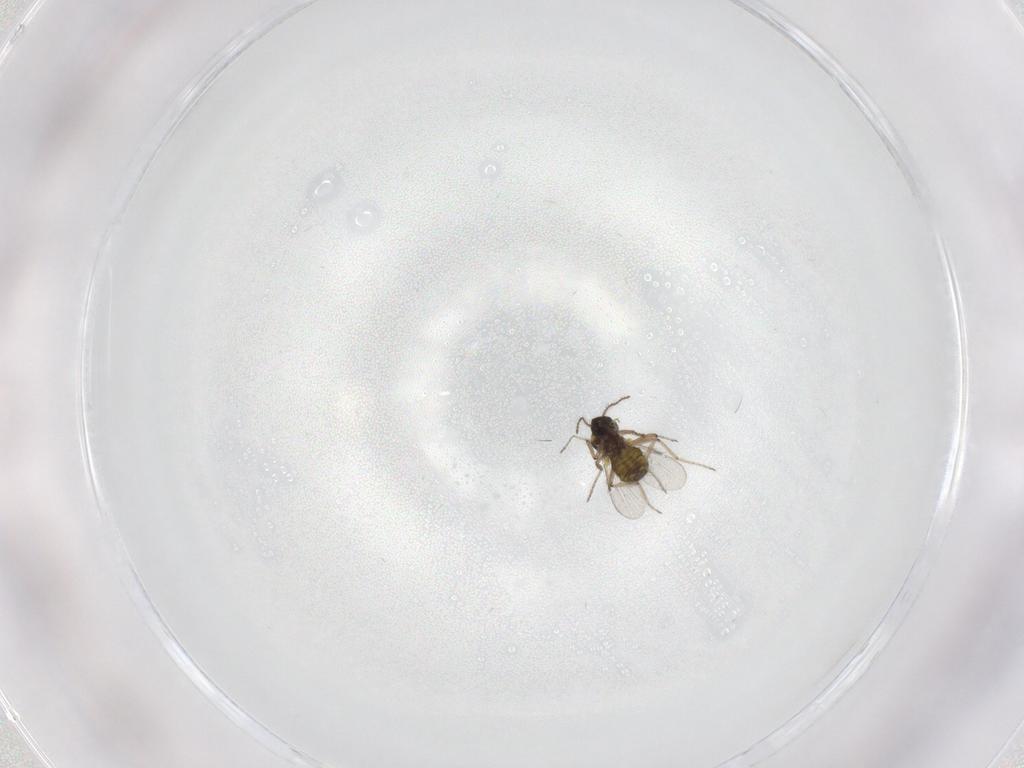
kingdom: Animalia
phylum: Arthropoda
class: Insecta
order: Diptera
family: Ceratopogonidae
